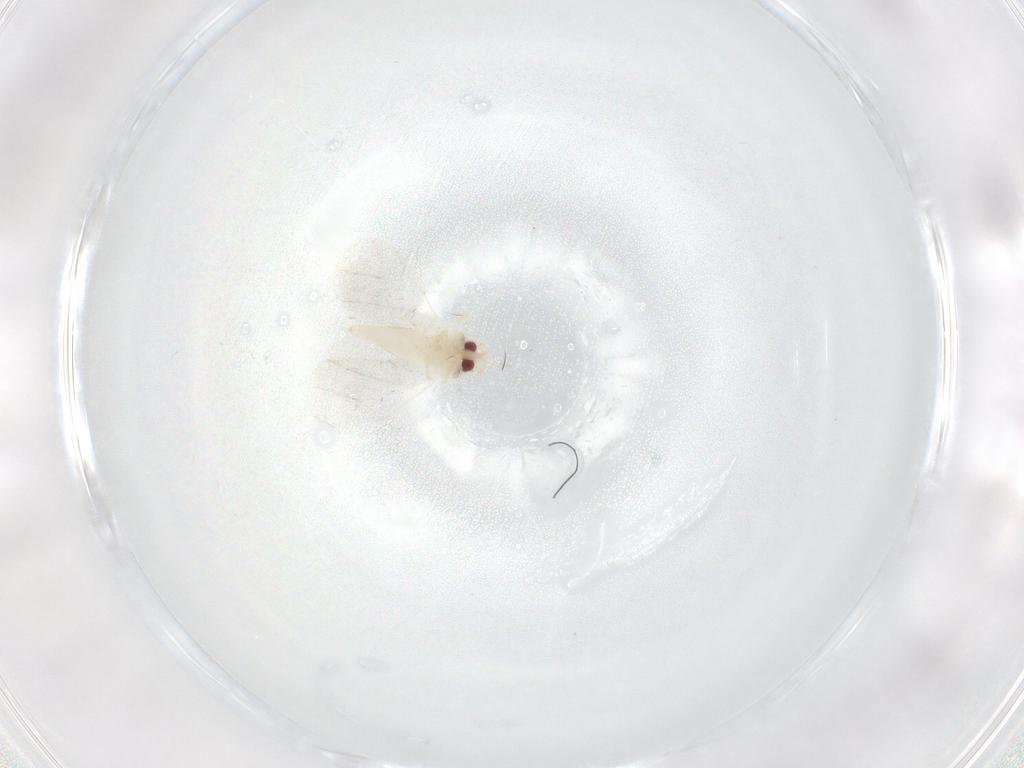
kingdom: Animalia
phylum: Arthropoda
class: Insecta
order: Hemiptera
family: Aleyrodidae
